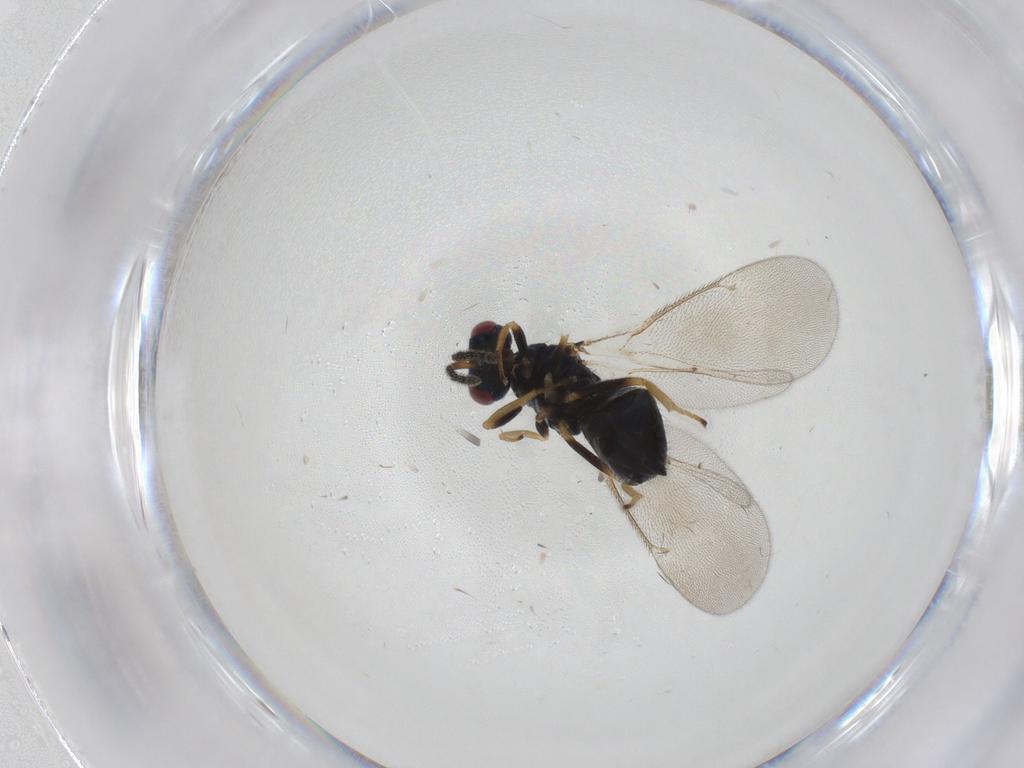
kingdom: Animalia
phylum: Arthropoda
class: Insecta
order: Hymenoptera
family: Eulophidae
